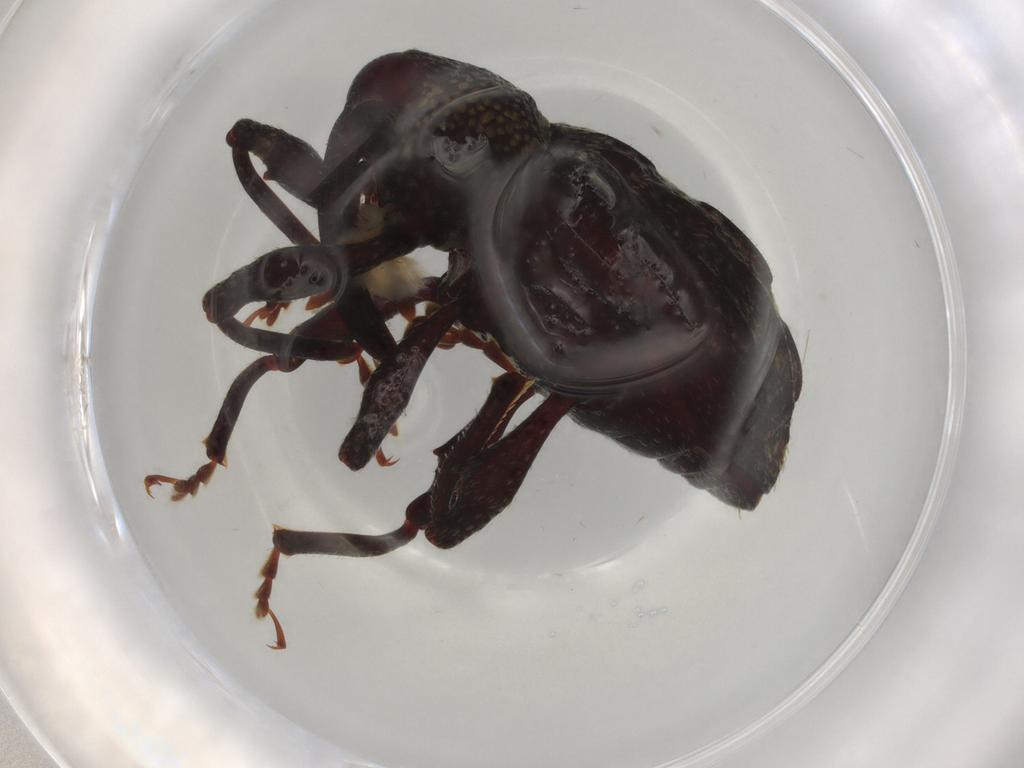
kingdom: Animalia
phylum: Arthropoda
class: Insecta
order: Coleoptera
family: Curculionidae
